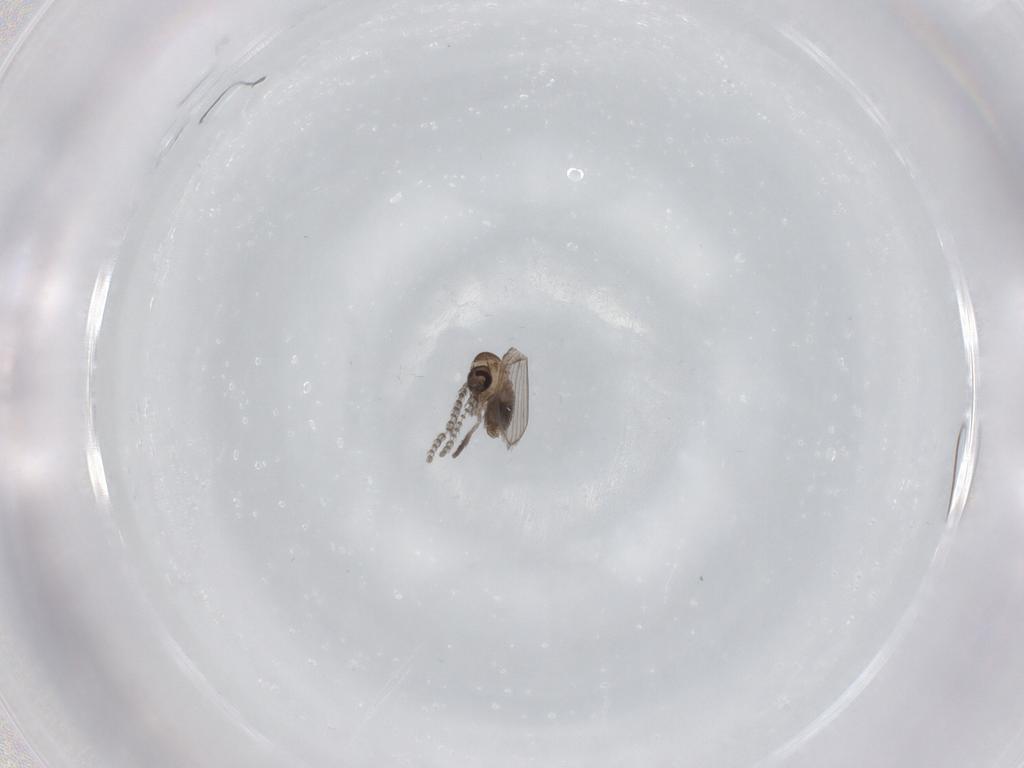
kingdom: Animalia
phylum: Arthropoda
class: Insecta
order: Diptera
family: Psychodidae
